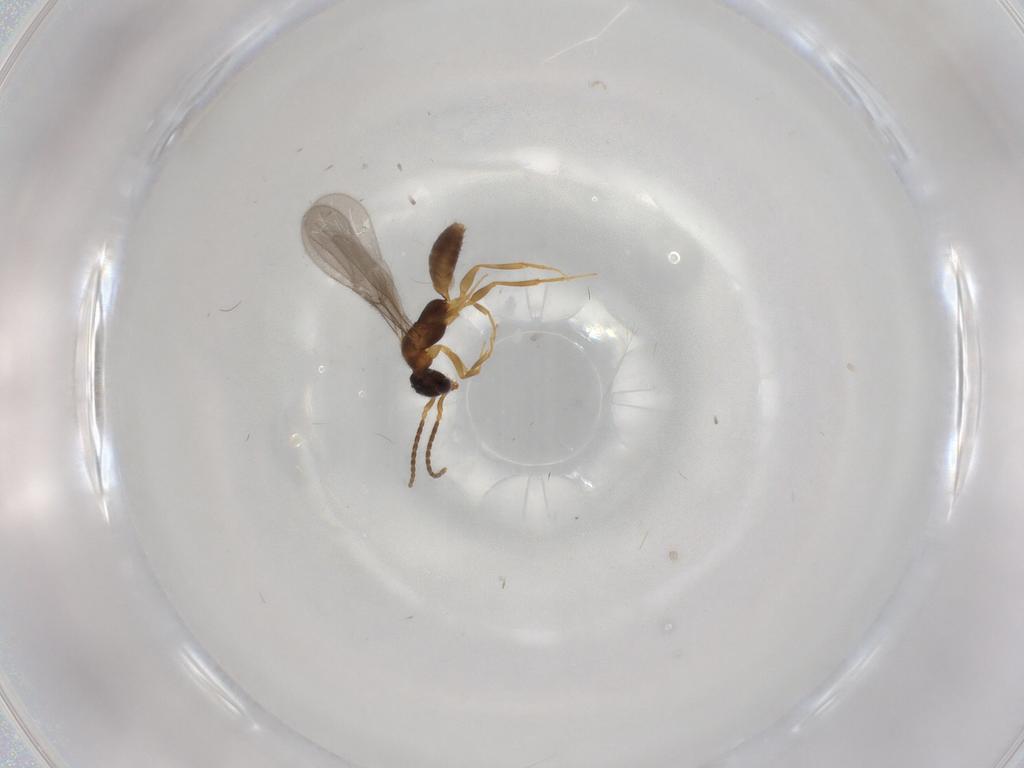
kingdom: Animalia
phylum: Arthropoda
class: Insecta
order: Hymenoptera
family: Bethylidae
